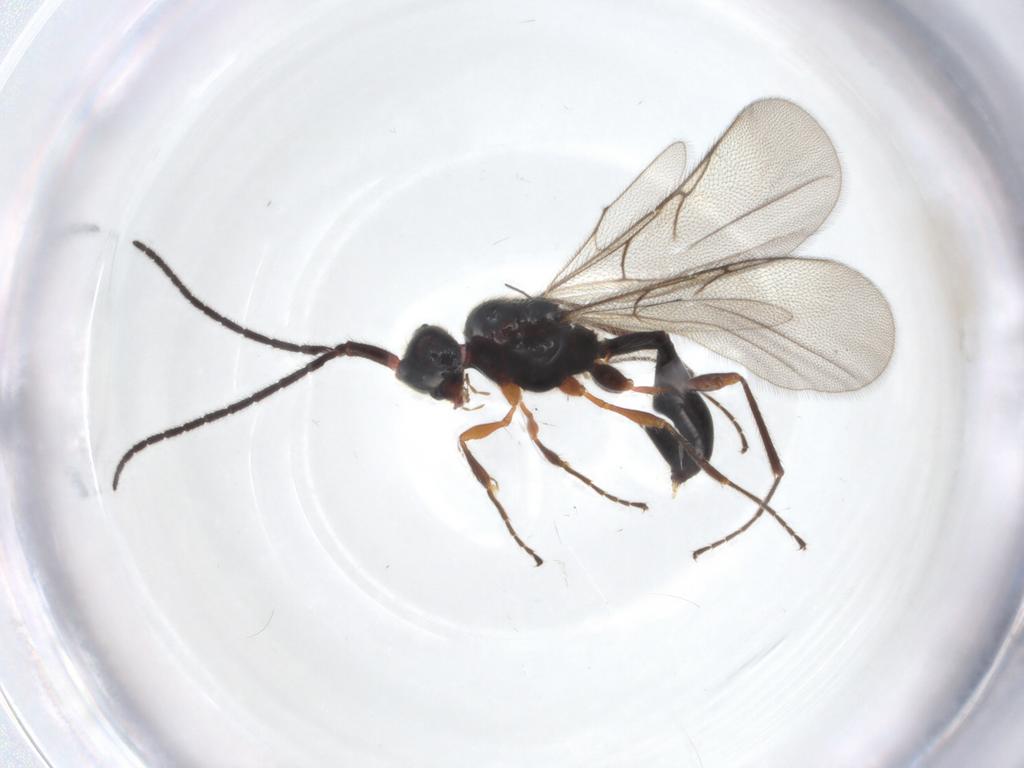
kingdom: Animalia
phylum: Arthropoda
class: Insecta
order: Hymenoptera
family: Diapriidae
